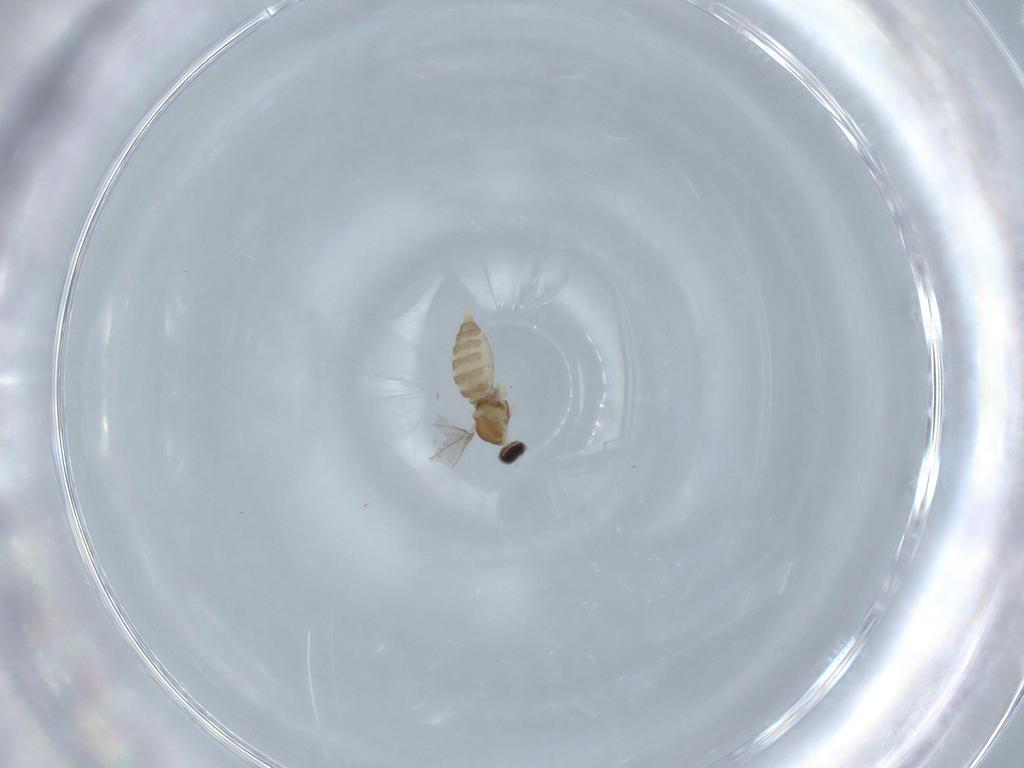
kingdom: Animalia
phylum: Arthropoda
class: Insecta
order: Diptera
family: Cecidomyiidae
